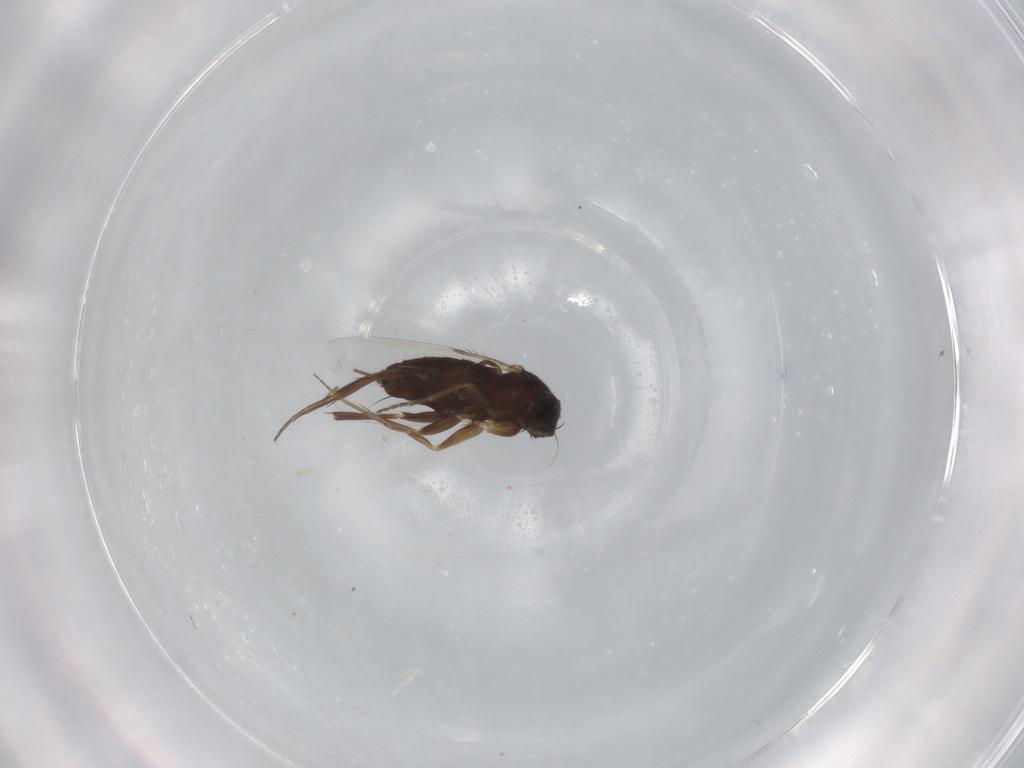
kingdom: Animalia
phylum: Arthropoda
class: Insecta
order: Diptera
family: Phoridae
